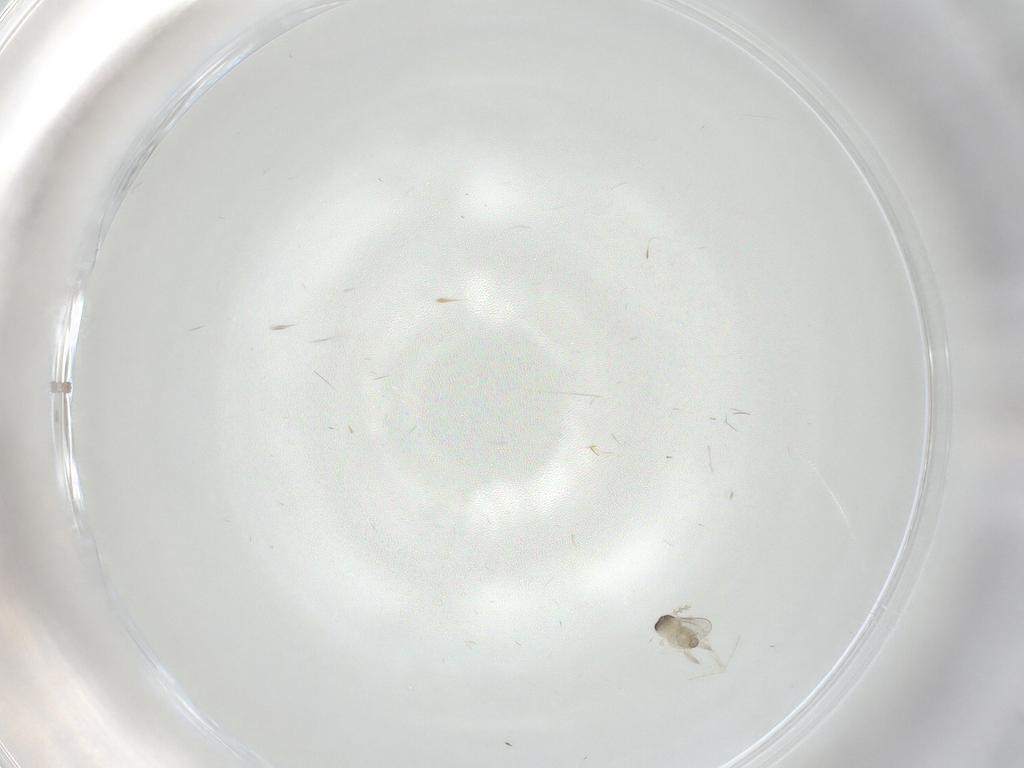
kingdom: Animalia
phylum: Arthropoda
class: Insecta
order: Diptera
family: Cecidomyiidae
